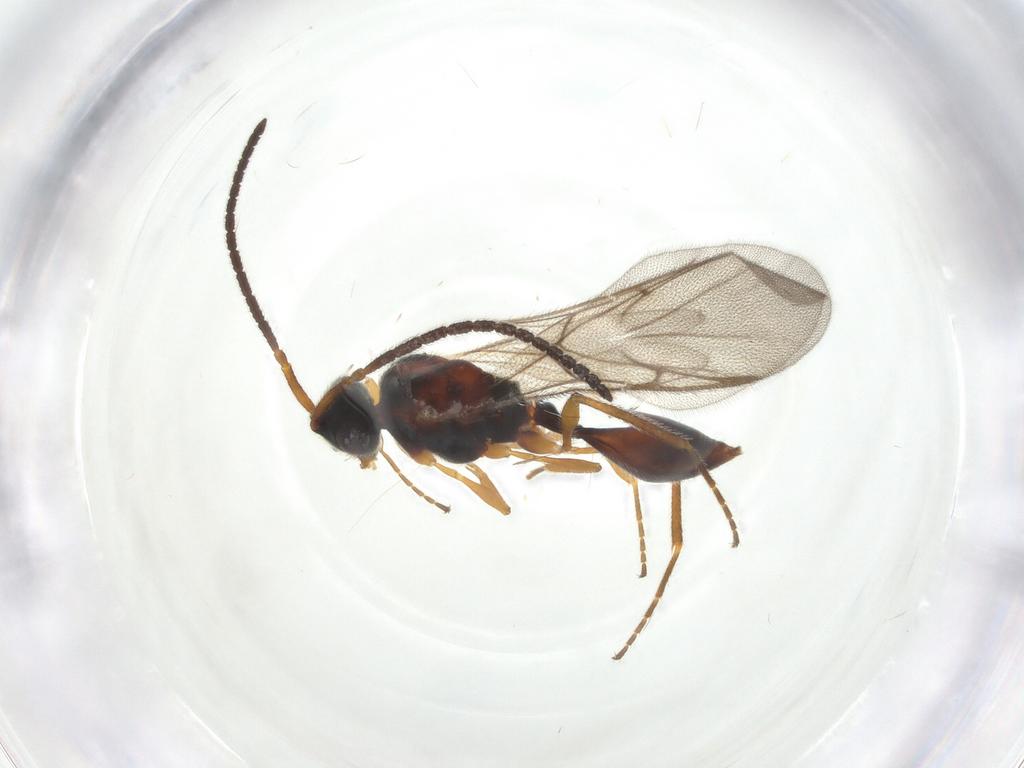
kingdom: Animalia
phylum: Arthropoda
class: Insecta
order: Hymenoptera
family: Diapriidae
